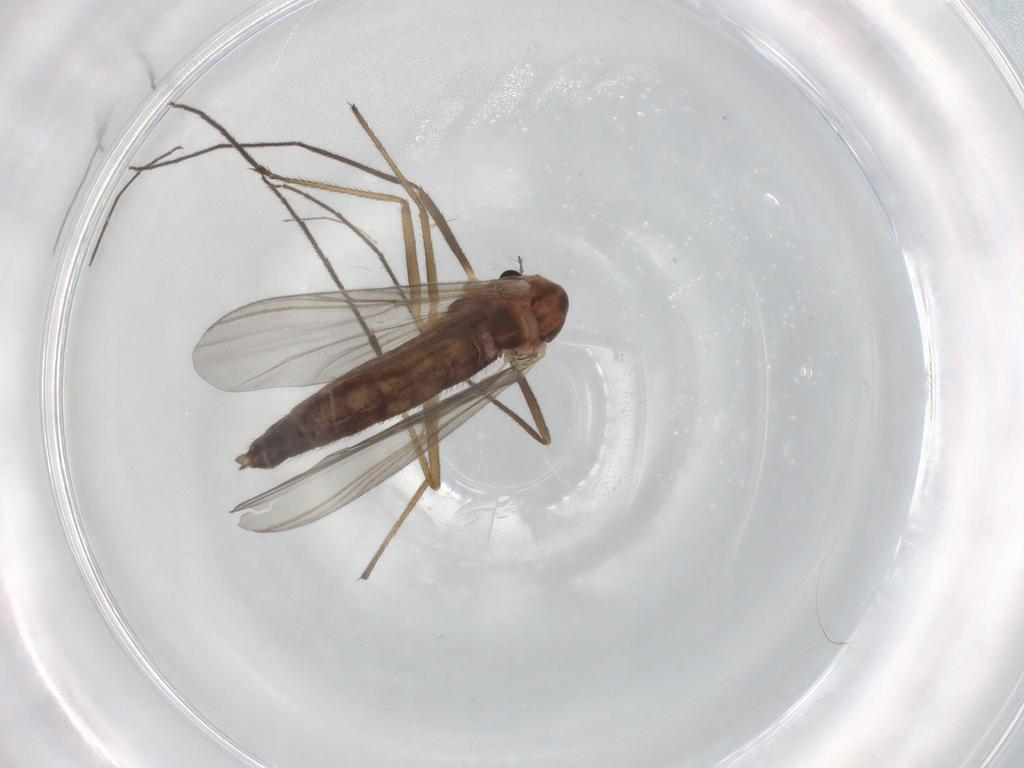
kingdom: Animalia
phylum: Arthropoda
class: Insecta
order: Diptera
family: Chironomidae
